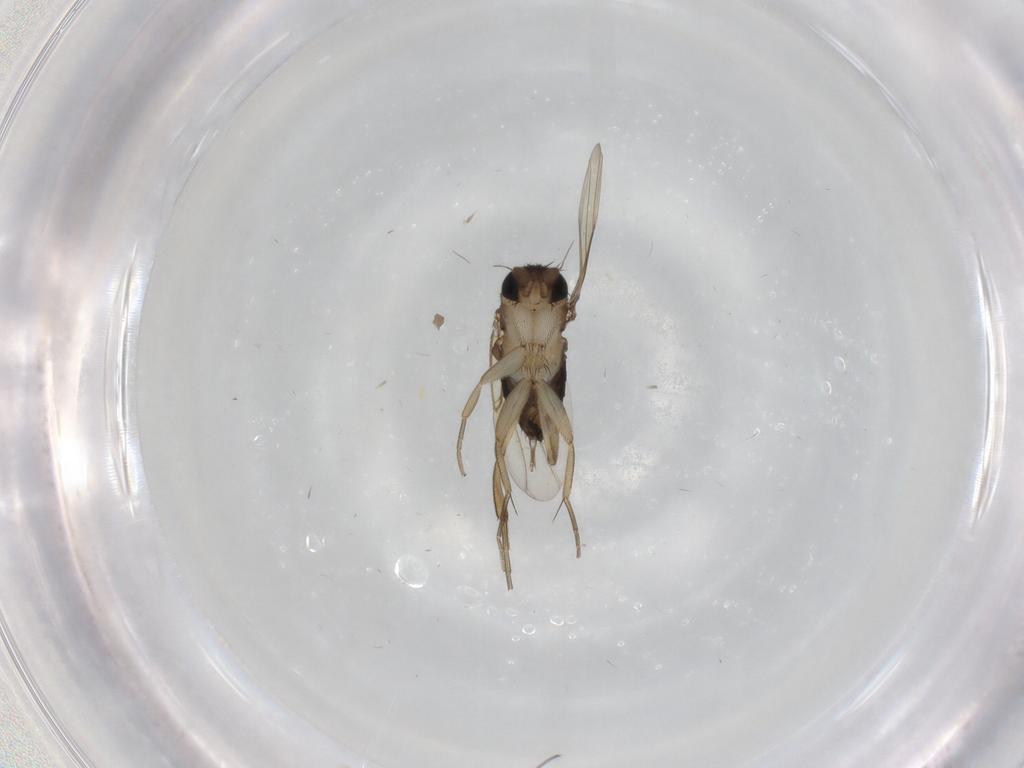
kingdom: Animalia
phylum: Arthropoda
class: Insecta
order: Diptera
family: Phoridae
